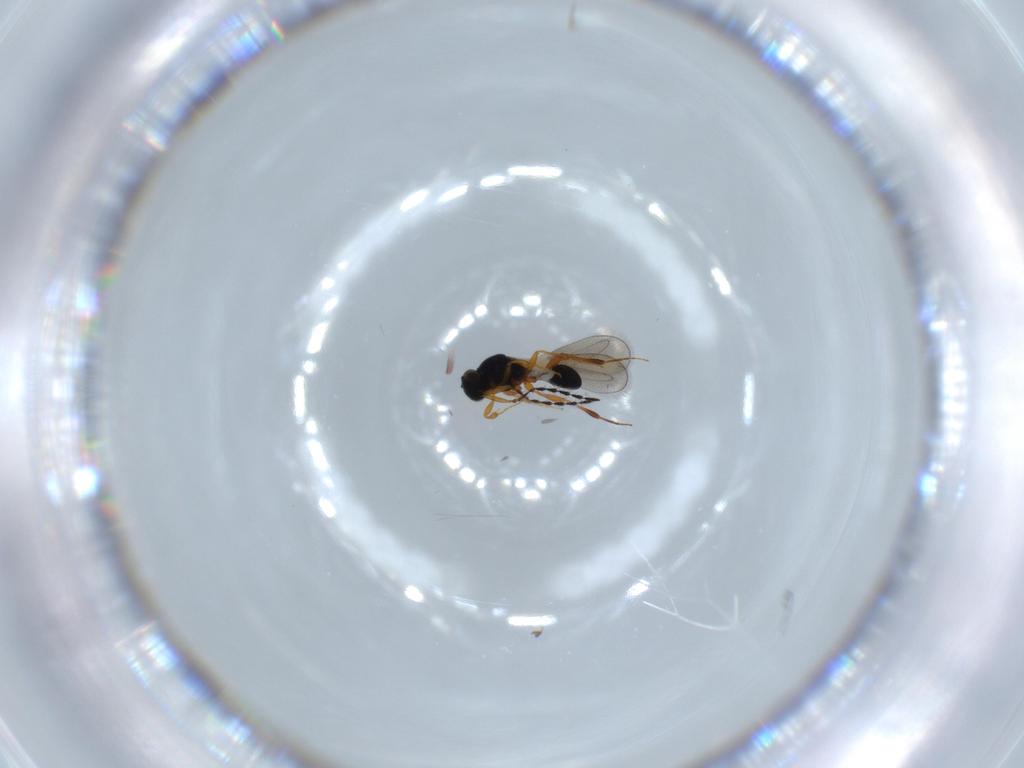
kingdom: Animalia
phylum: Arthropoda
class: Insecta
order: Hymenoptera
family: Platygastridae
